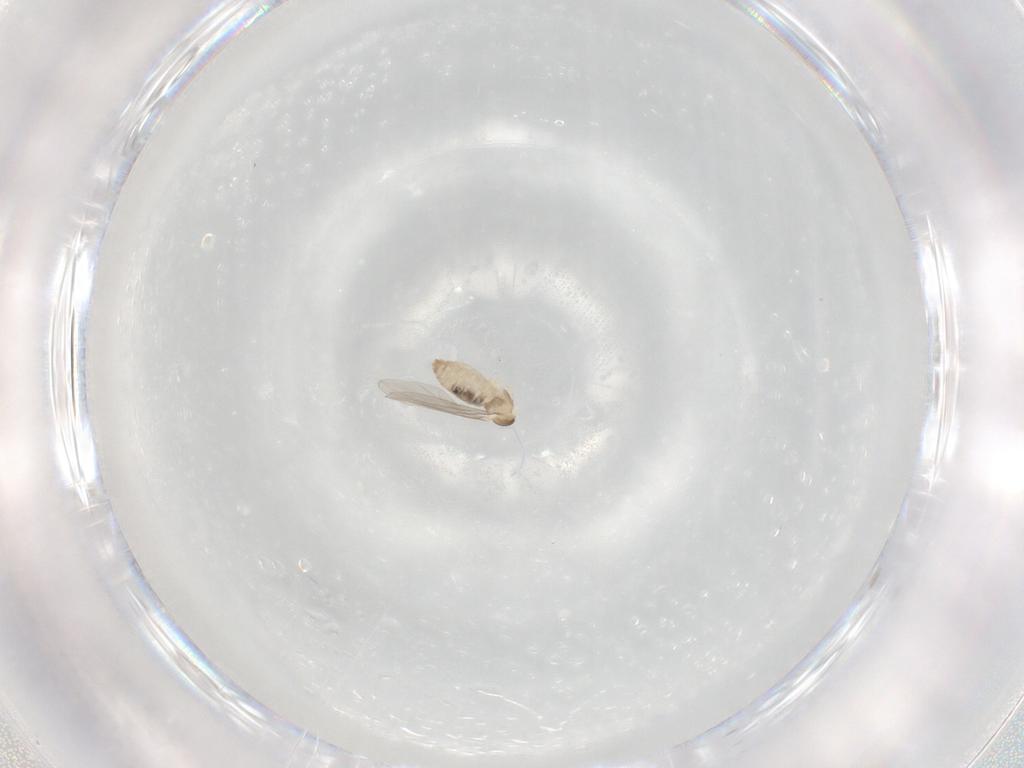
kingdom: Animalia
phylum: Arthropoda
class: Insecta
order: Diptera
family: Cecidomyiidae
